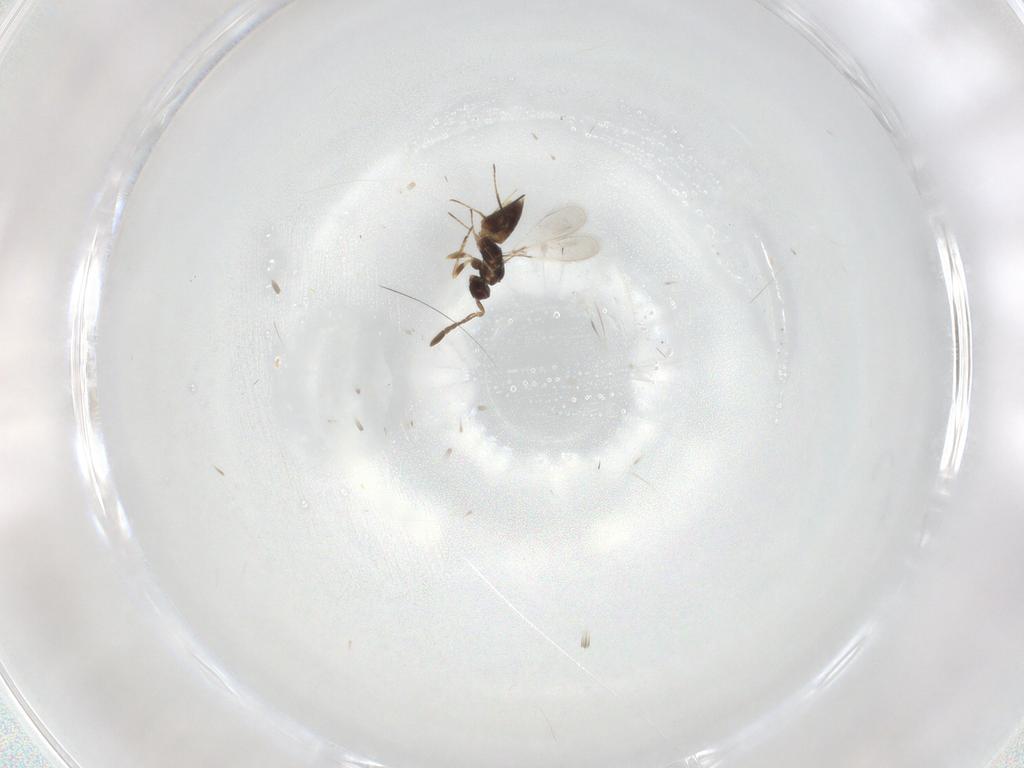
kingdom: Animalia
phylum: Arthropoda
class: Insecta
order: Hymenoptera
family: Mymaridae
